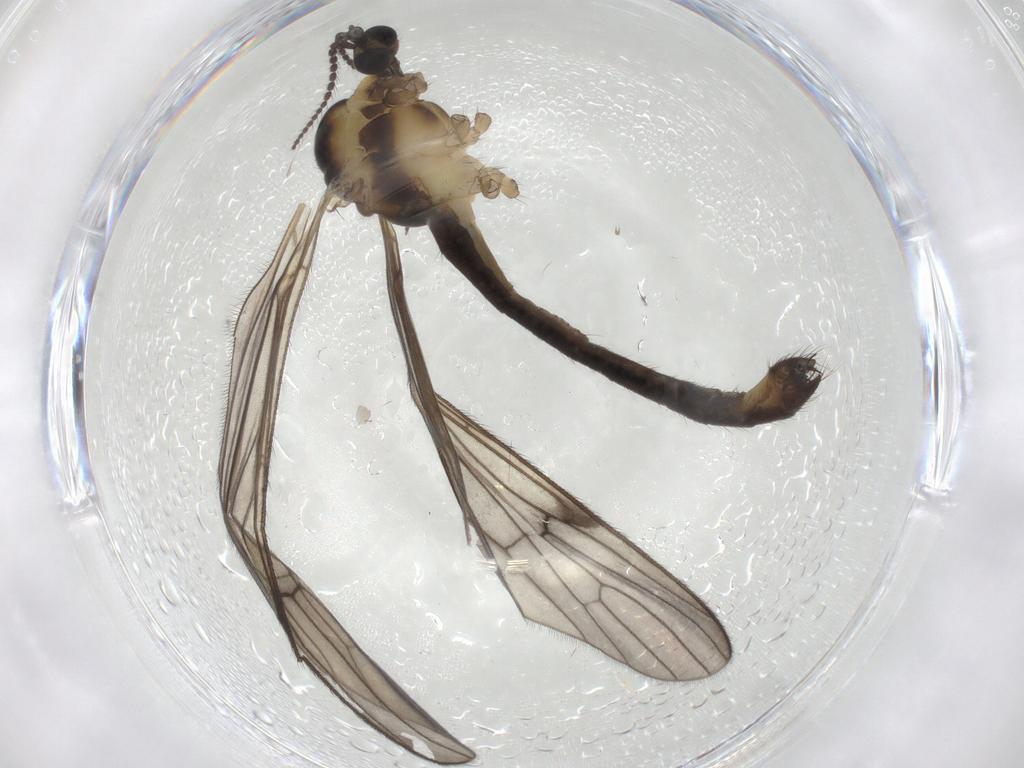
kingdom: Animalia
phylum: Arthropoda
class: Insecta
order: Diptera
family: Limoniidae
